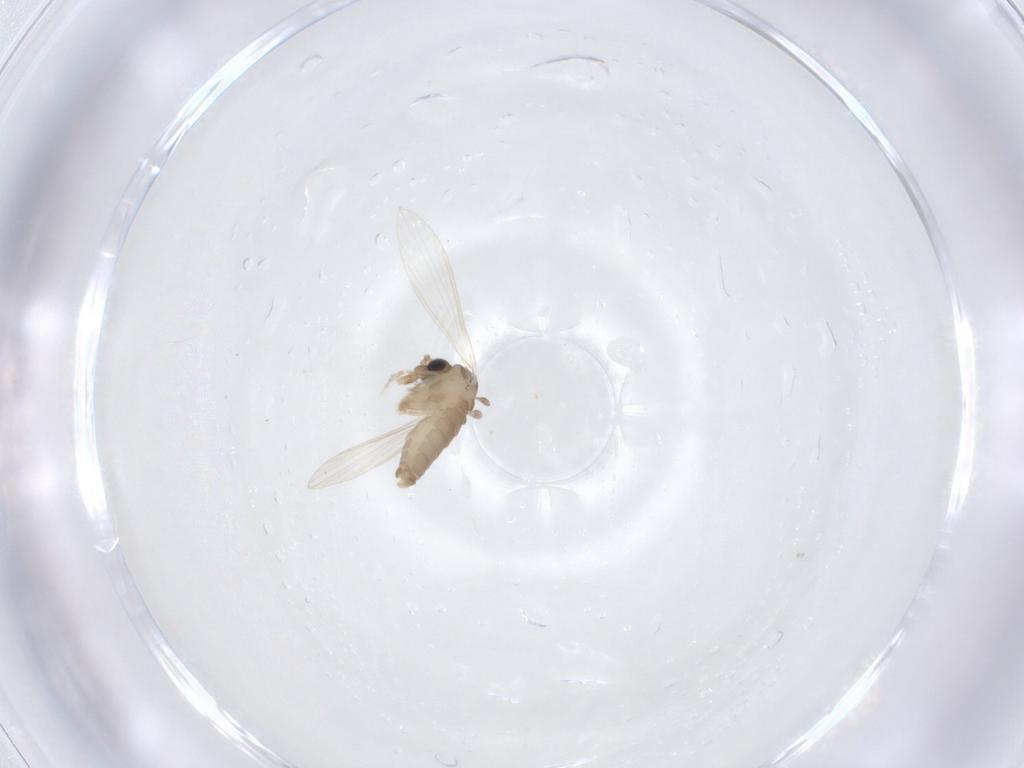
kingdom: Animalia
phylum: Arthropoda
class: Insecta
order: Diptera
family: Psychodidae
